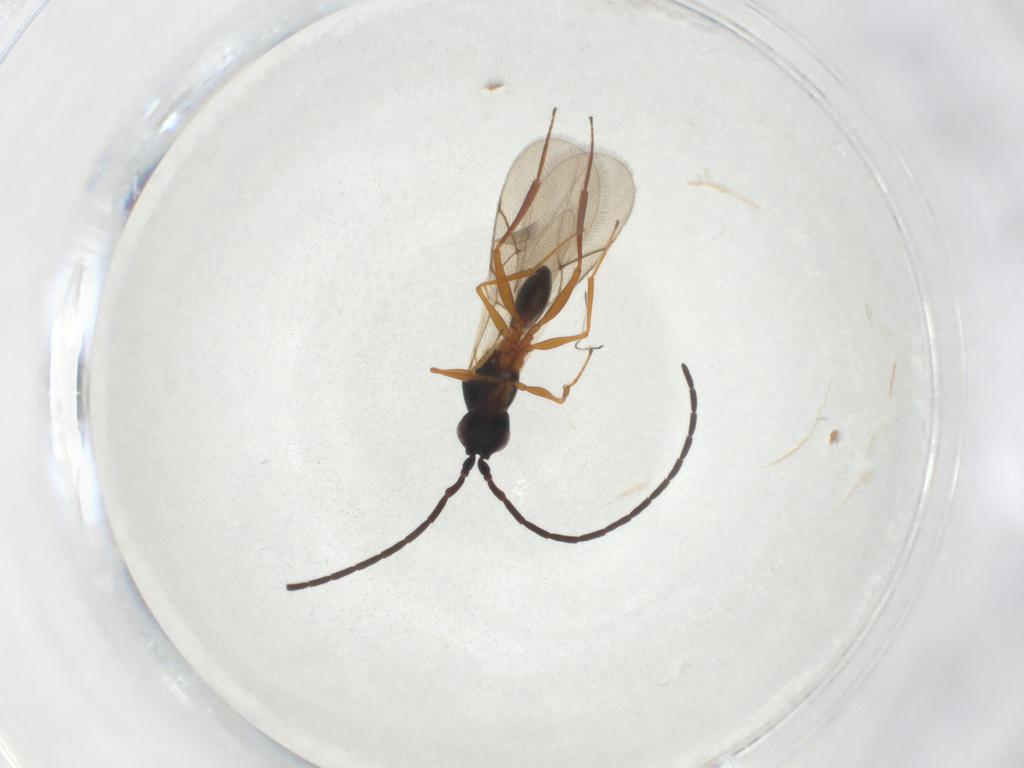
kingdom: Animalia
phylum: Arthropoda
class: Insecta
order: Hymenoptera
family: Figitidae
